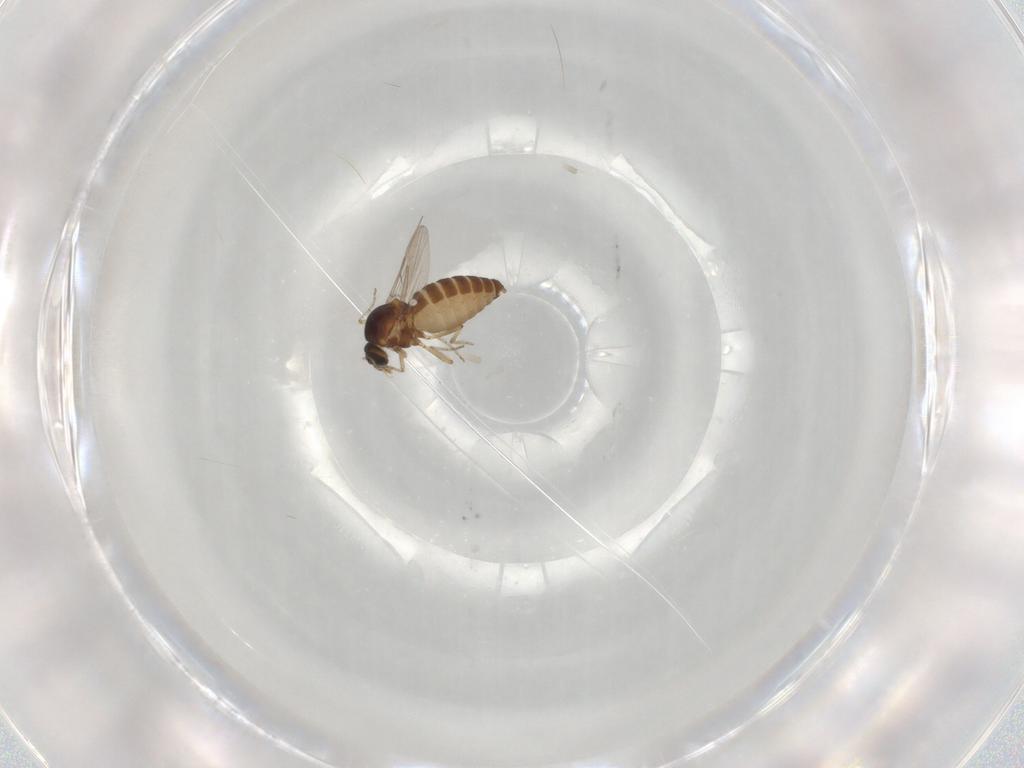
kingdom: Animalia
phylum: Arthropoda
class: Insecta
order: Diptera
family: Ceratopogonidae
